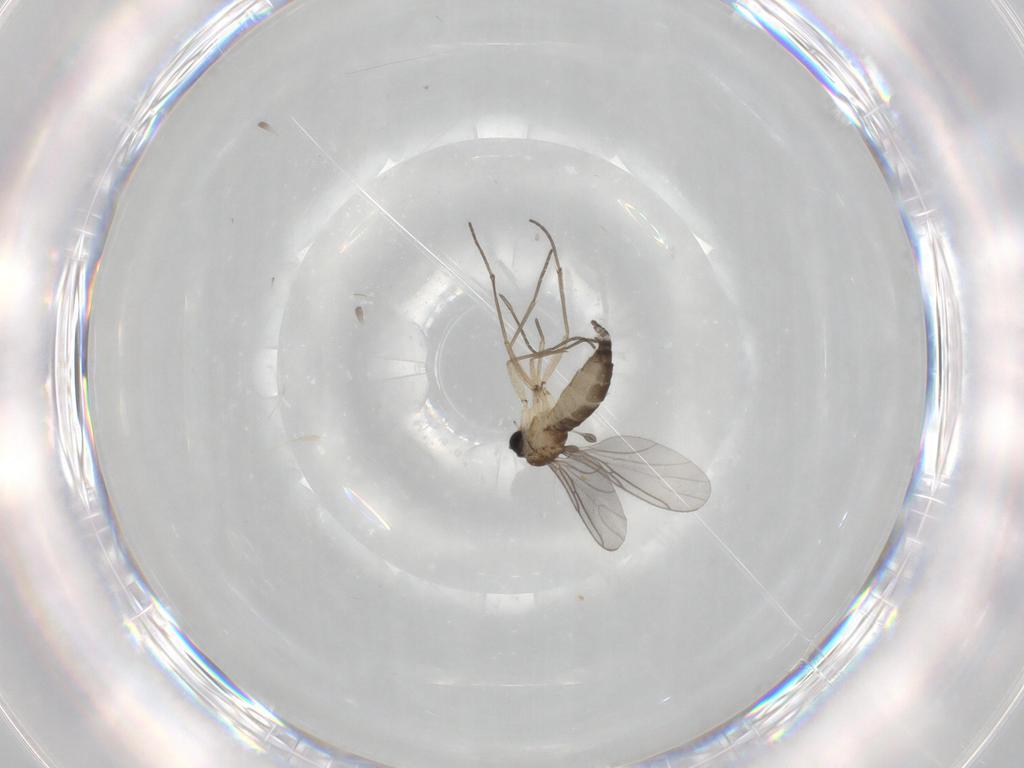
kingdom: Animalia
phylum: Arthropoda
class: Insecta
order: Diptera
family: Sciaridae
